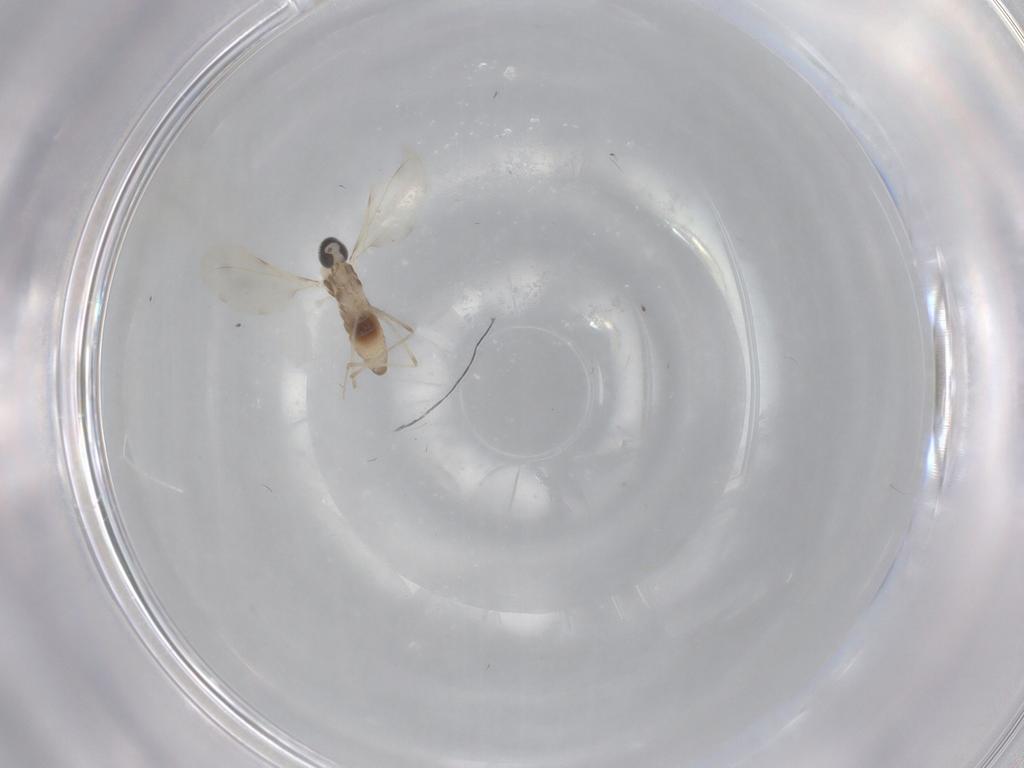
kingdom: Animalia
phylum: Arthropoda
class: Insecta
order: Diptera
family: Cecidomyiidae
